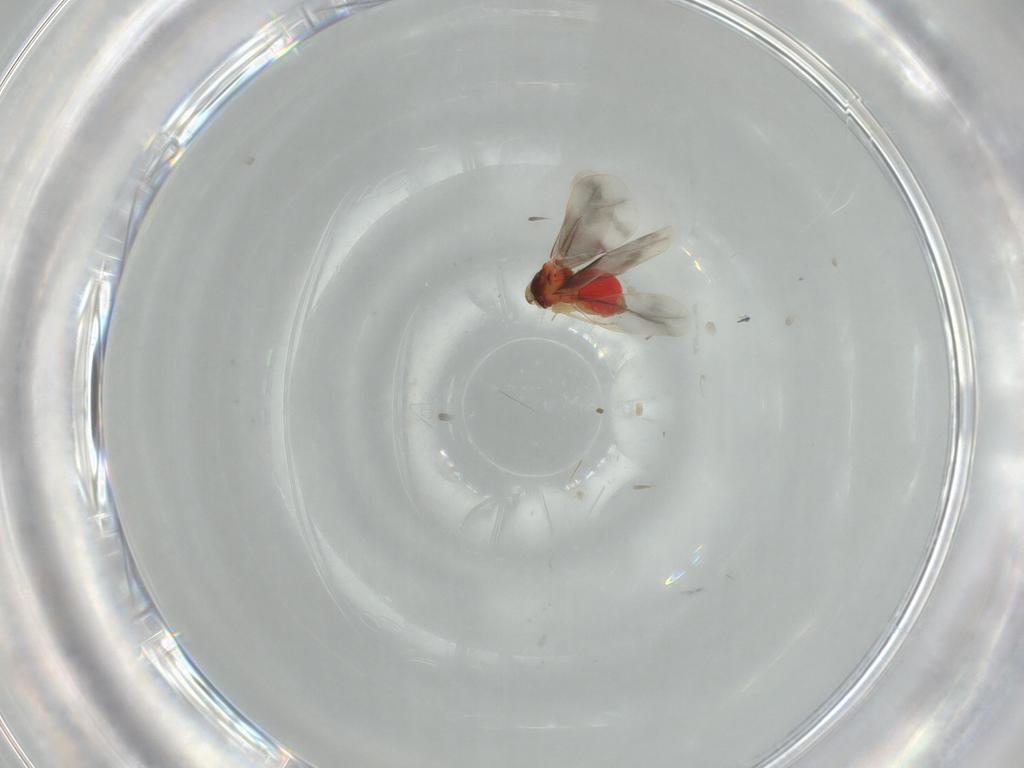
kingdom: Animalia
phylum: Arthropoda
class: Insecta
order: Hemiptera
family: Aleyrodidae
